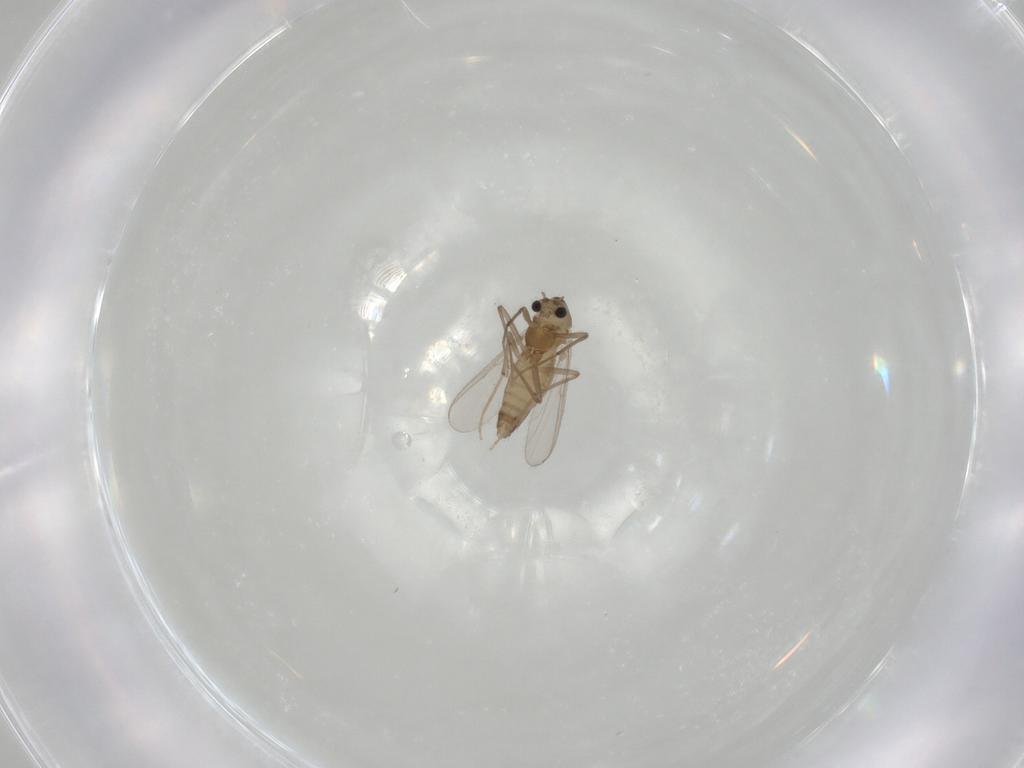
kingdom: Animalia
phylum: Arthropoda
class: Insecta
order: Diptera
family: Chironomidae
